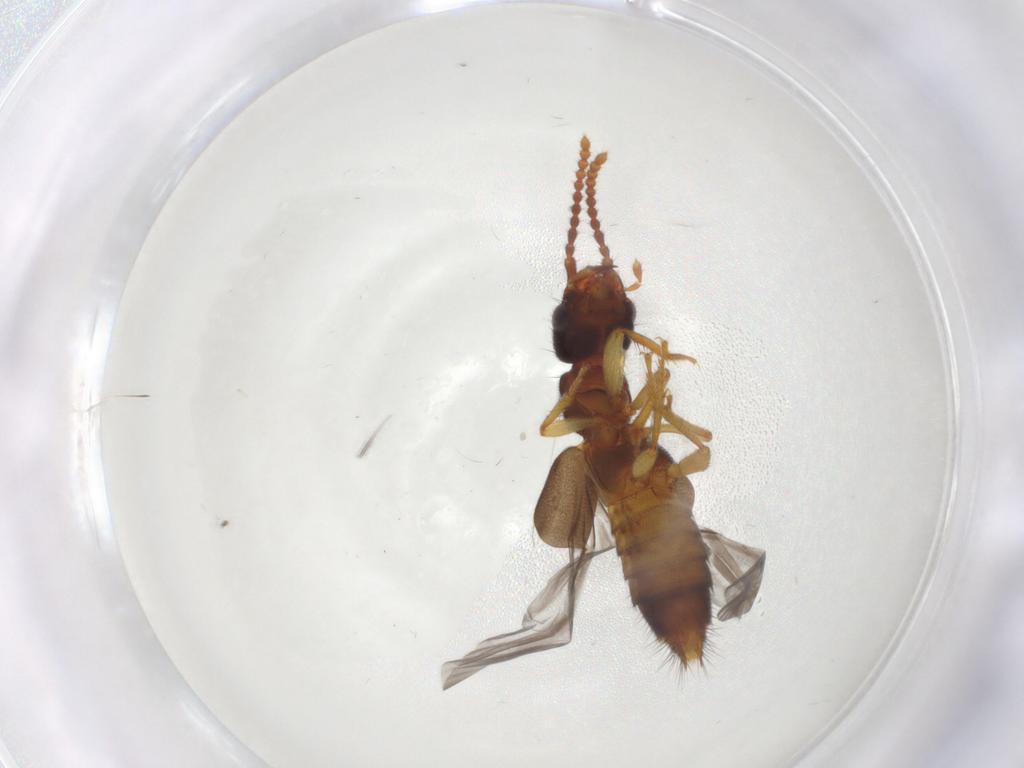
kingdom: Animalia
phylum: Arthropoda
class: Insecta
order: Coleoptera
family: Staphylinidae
